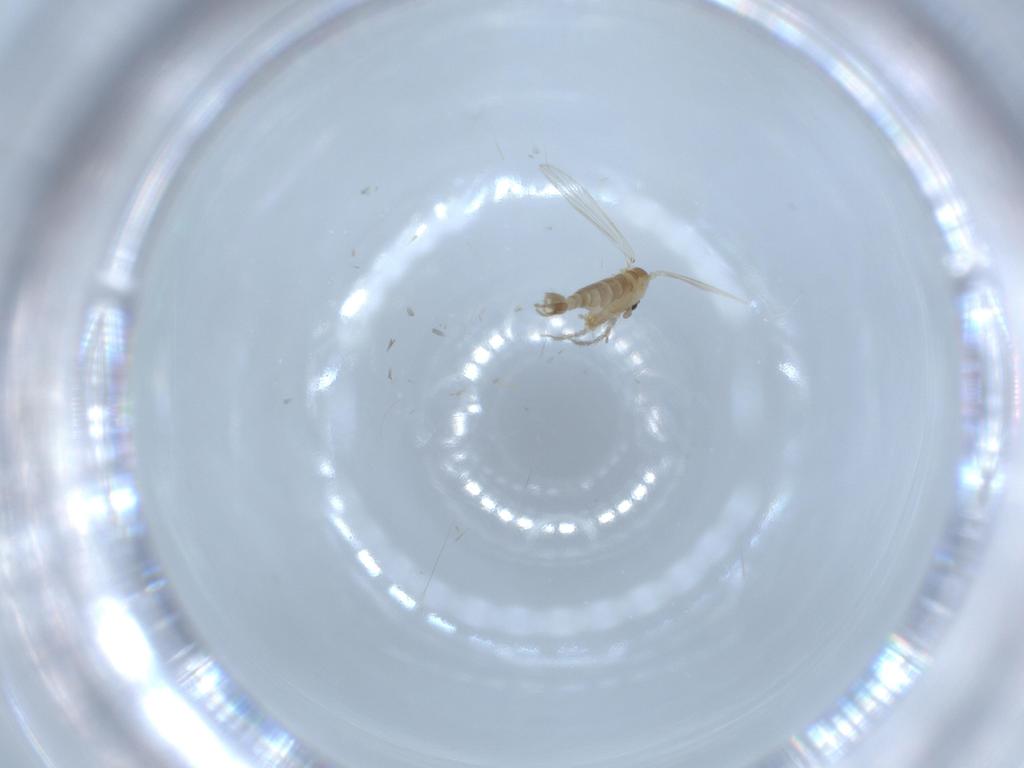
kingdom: Animalia
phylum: Arthropoda
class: Insecta
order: Diptera
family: Psychodidae
